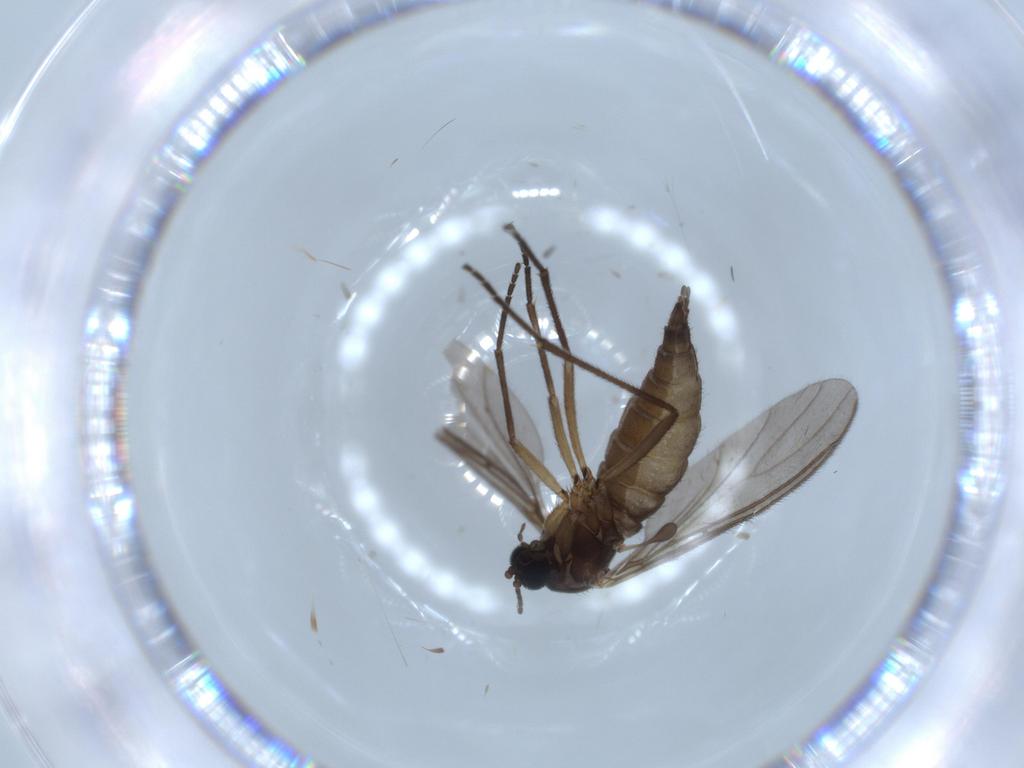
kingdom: Animalia
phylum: Arthropoda
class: Insecta
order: Diptera
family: Sciaridae
